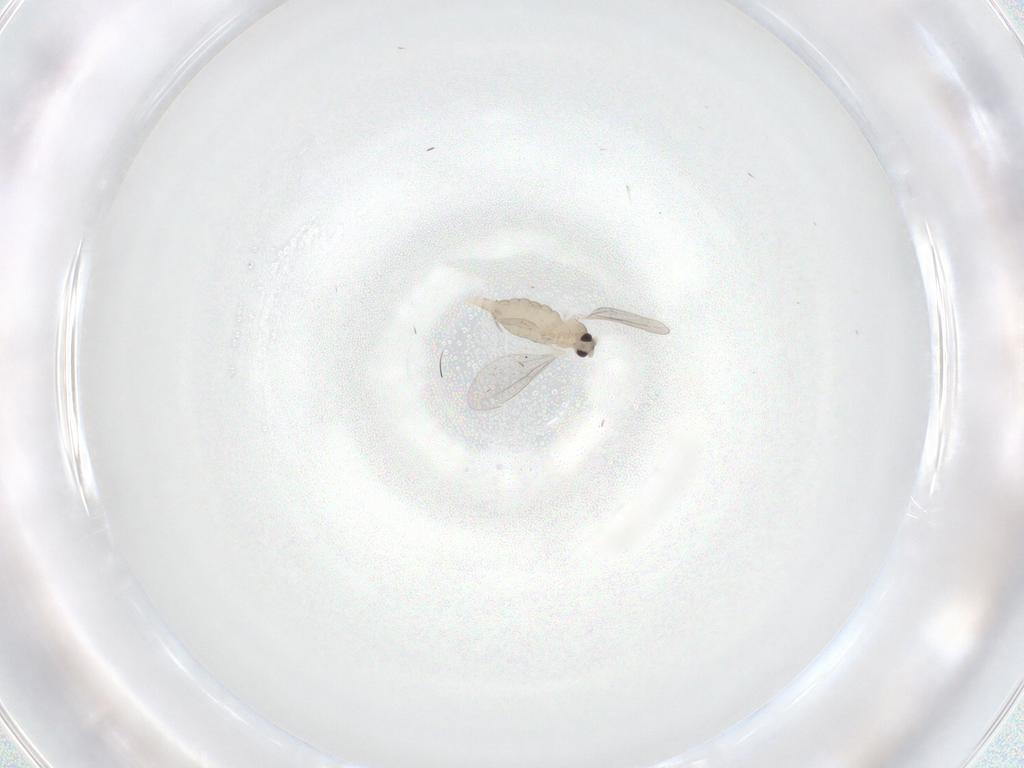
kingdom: Animalia
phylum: Arthropoda
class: Insecta
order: Diptera
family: Cecidomyiidae
